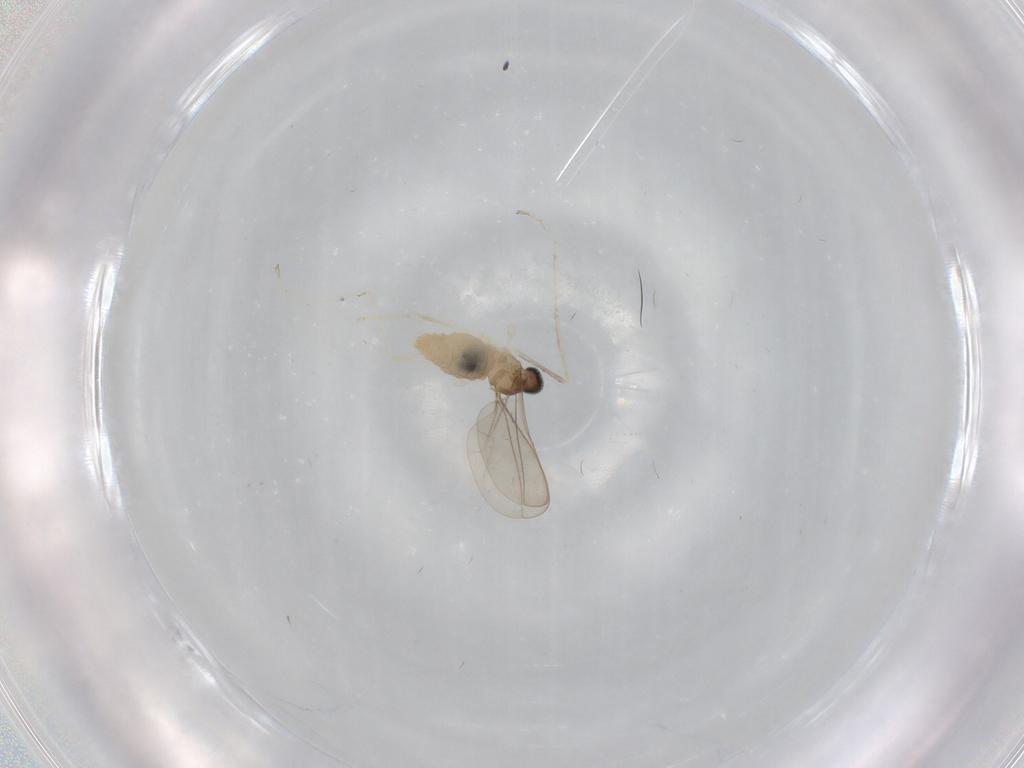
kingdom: Animalia
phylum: Arthropoda
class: Insecta
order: Diptera
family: Cecidomyiidae
